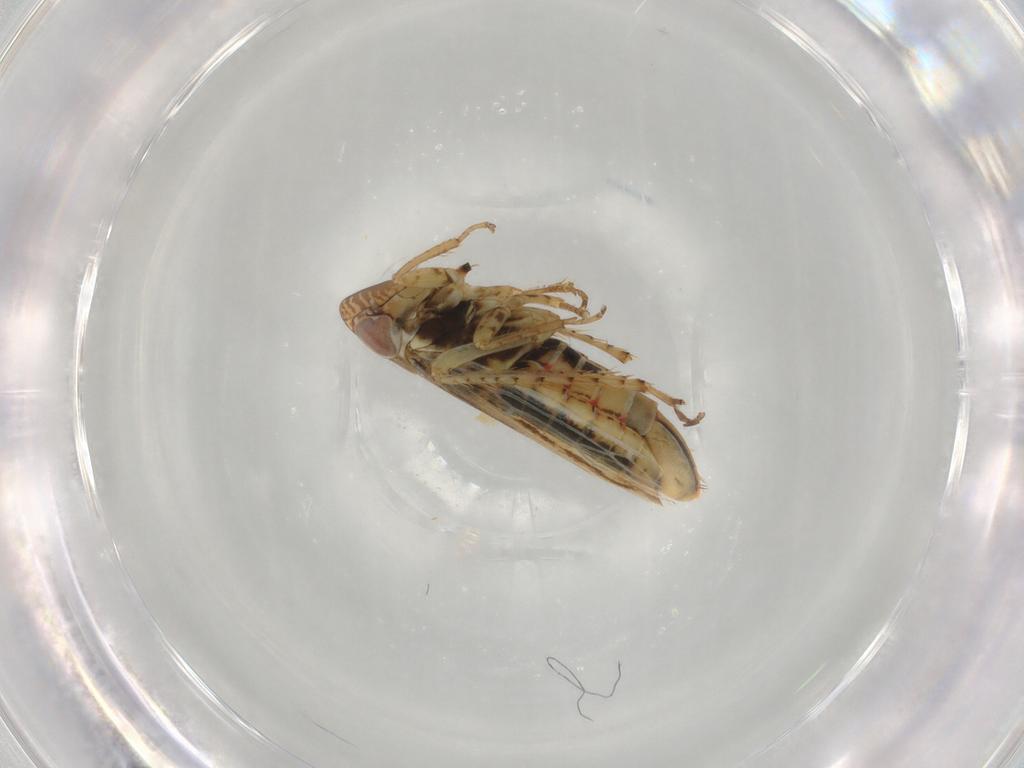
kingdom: Animalia
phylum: Arthropoda
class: Insecta
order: Hemiptera
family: Cicadellidae
